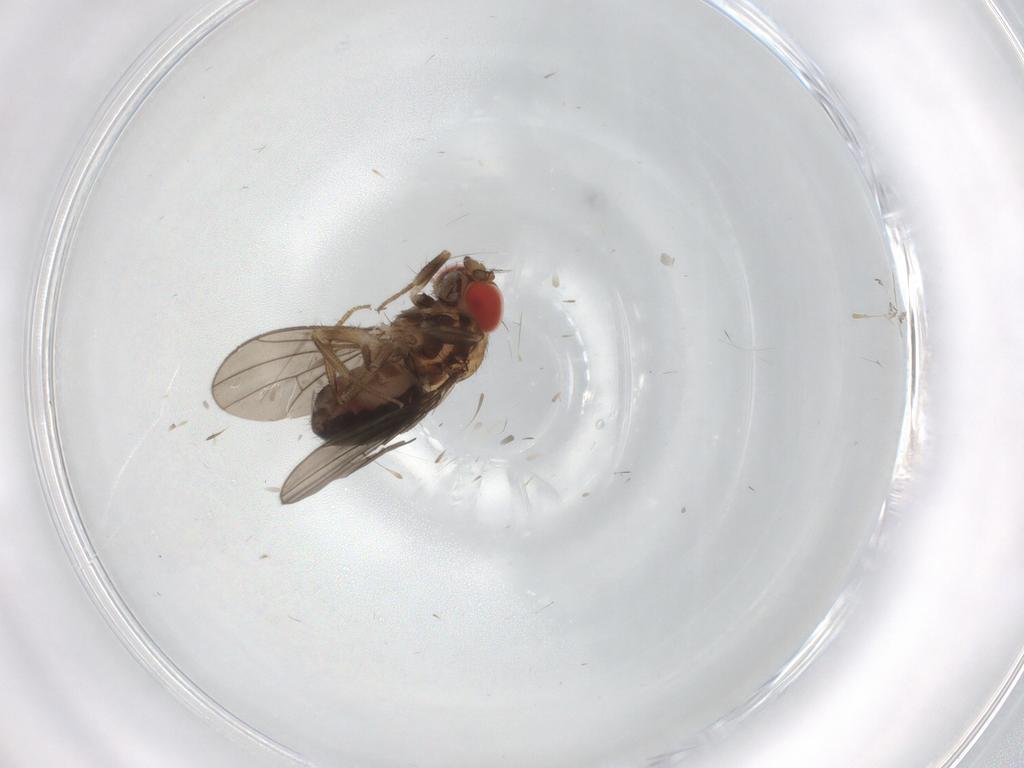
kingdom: Animalia
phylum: Arthropoda
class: Insecta
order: Diptera
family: Drosophilidae
